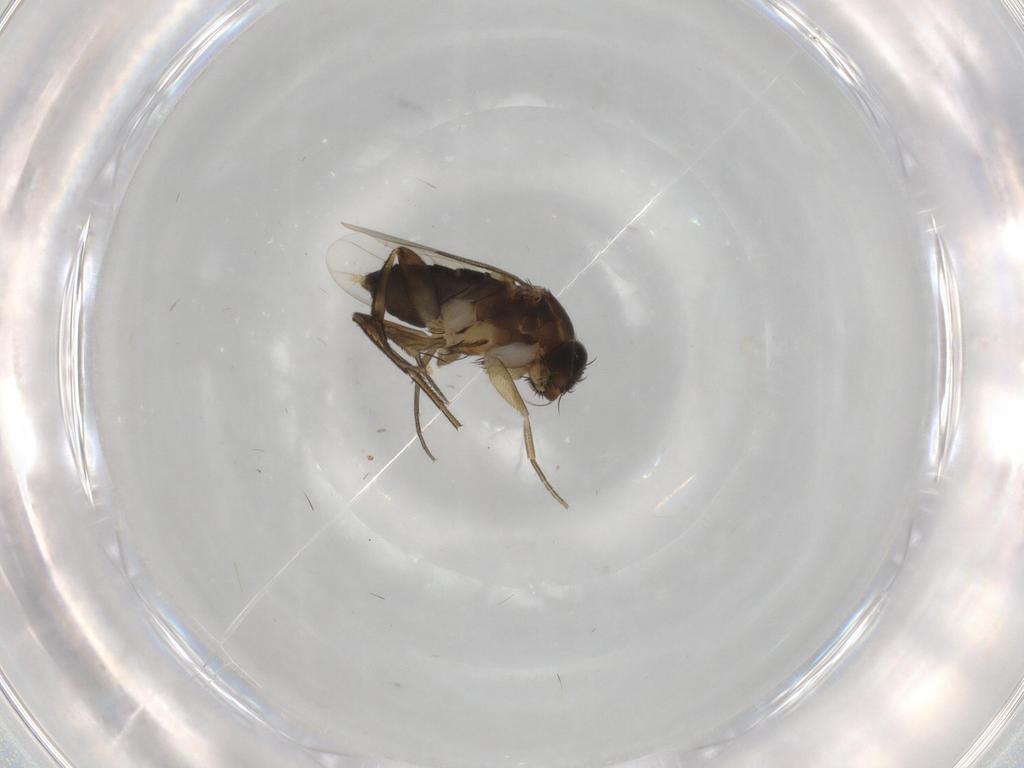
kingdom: Animalia
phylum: Arthropoda
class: Insecta
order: Diptera
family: Phoridae
